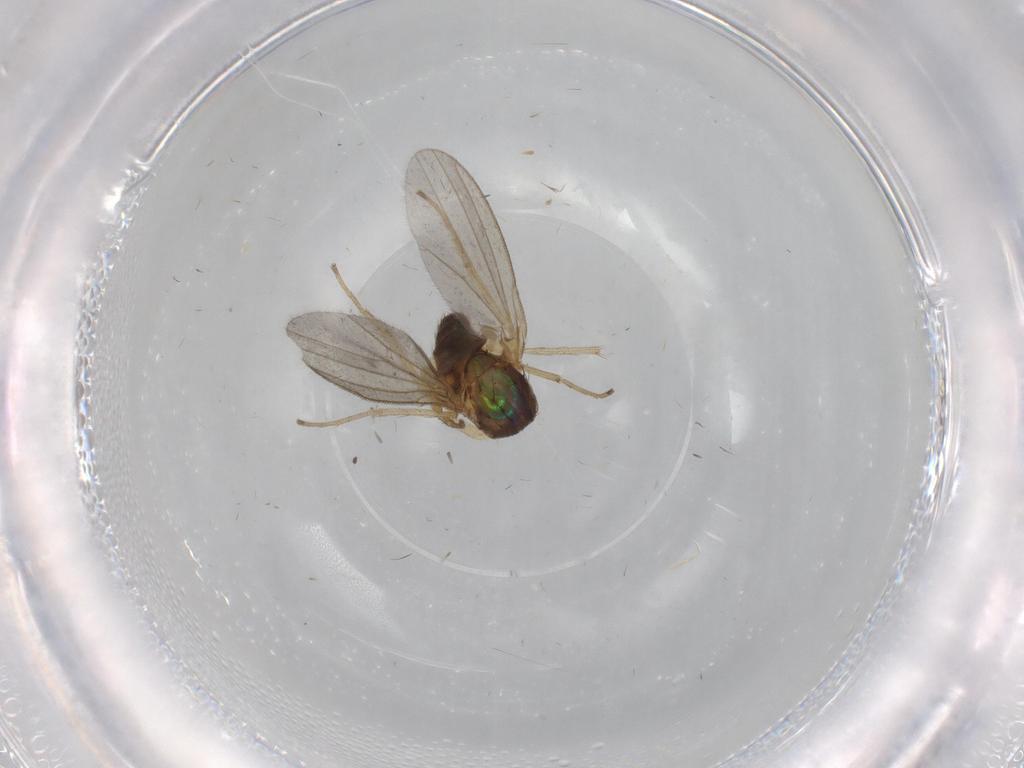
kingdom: Animalia
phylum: Arthropoda
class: Insecta
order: Diptera
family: Dolichopodidae
